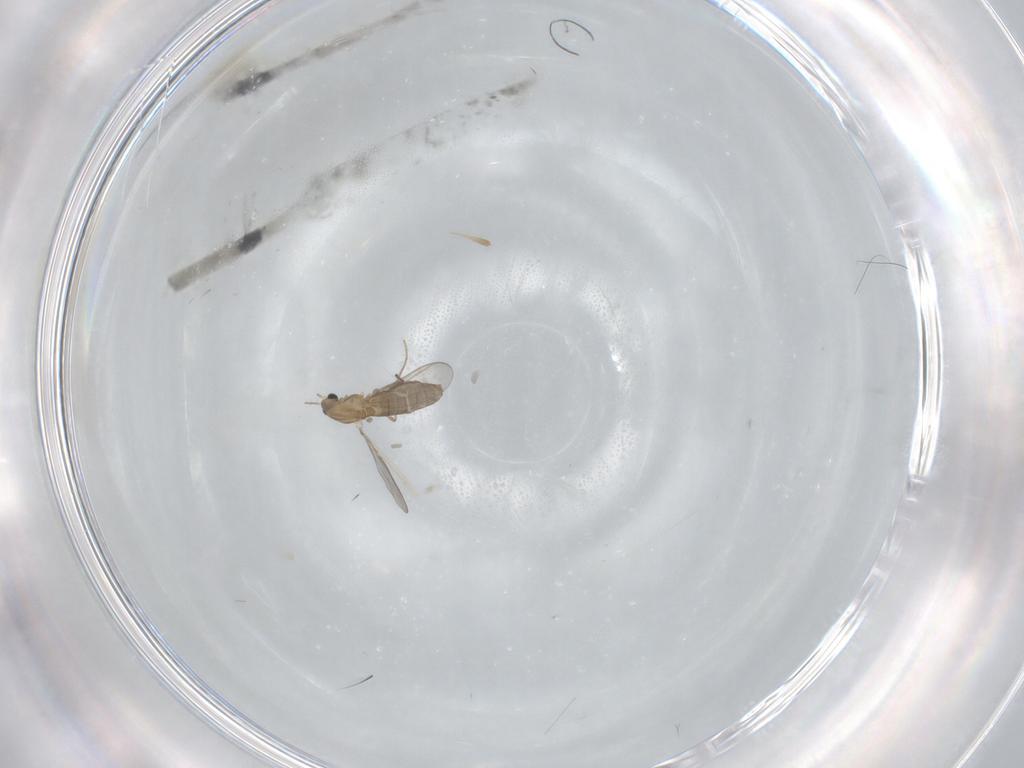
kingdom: Animalia
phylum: Arthropoda
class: Insecta
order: Diptera
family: Chironomidae
